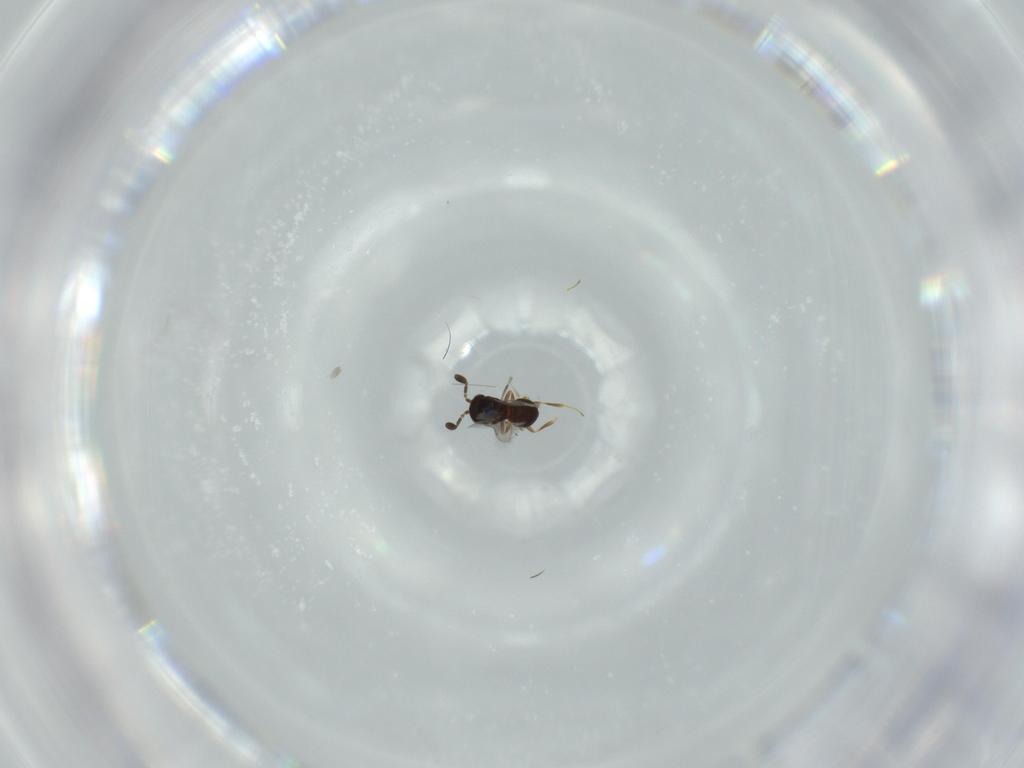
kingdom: Animalia
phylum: Arthropoda
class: Insecta
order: Hymenoptera
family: Scelionidae
